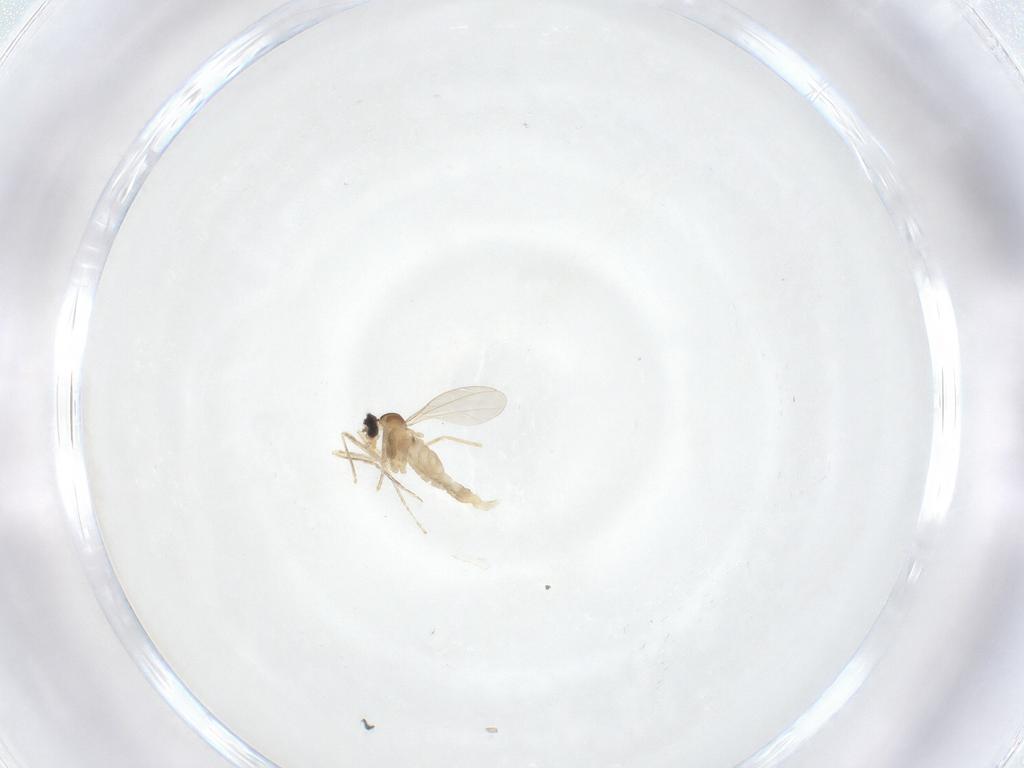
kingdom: Animalia
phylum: Arthropoda
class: Insecta
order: Diptera
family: Cecidomyiidae
